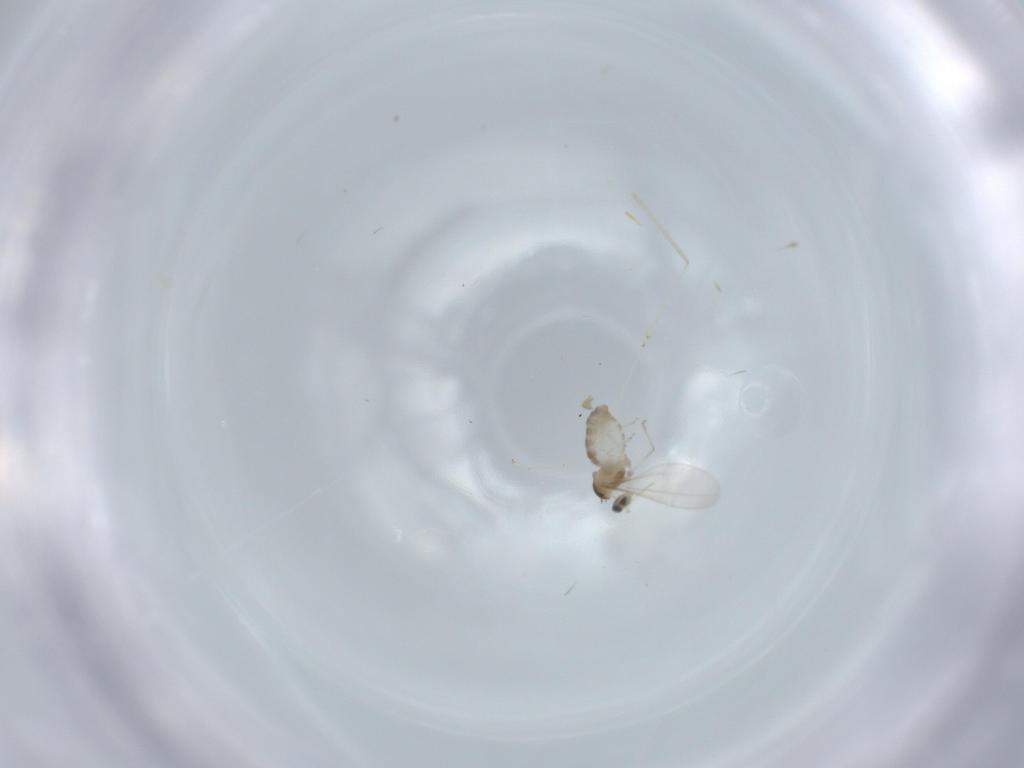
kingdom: Animalia
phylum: Arthropoda
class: Insecta
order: Diptera
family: Cecidomyiidae
